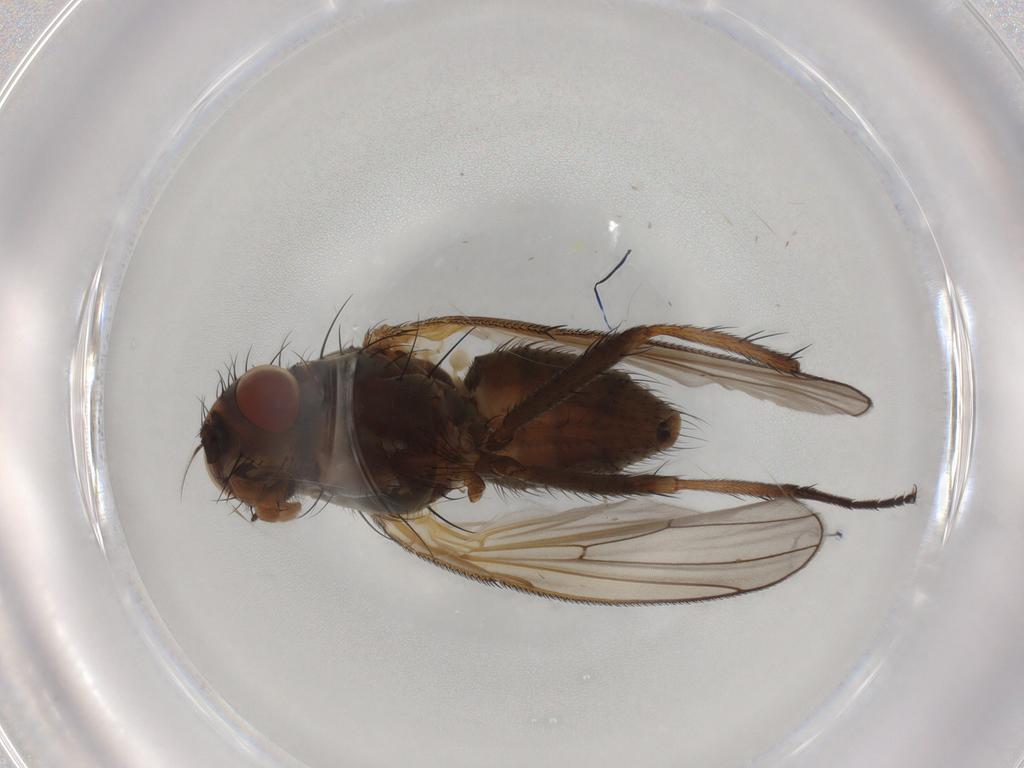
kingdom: Animalia
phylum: Arthropoda
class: Insecta
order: Diptera
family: Anthomyiidae
